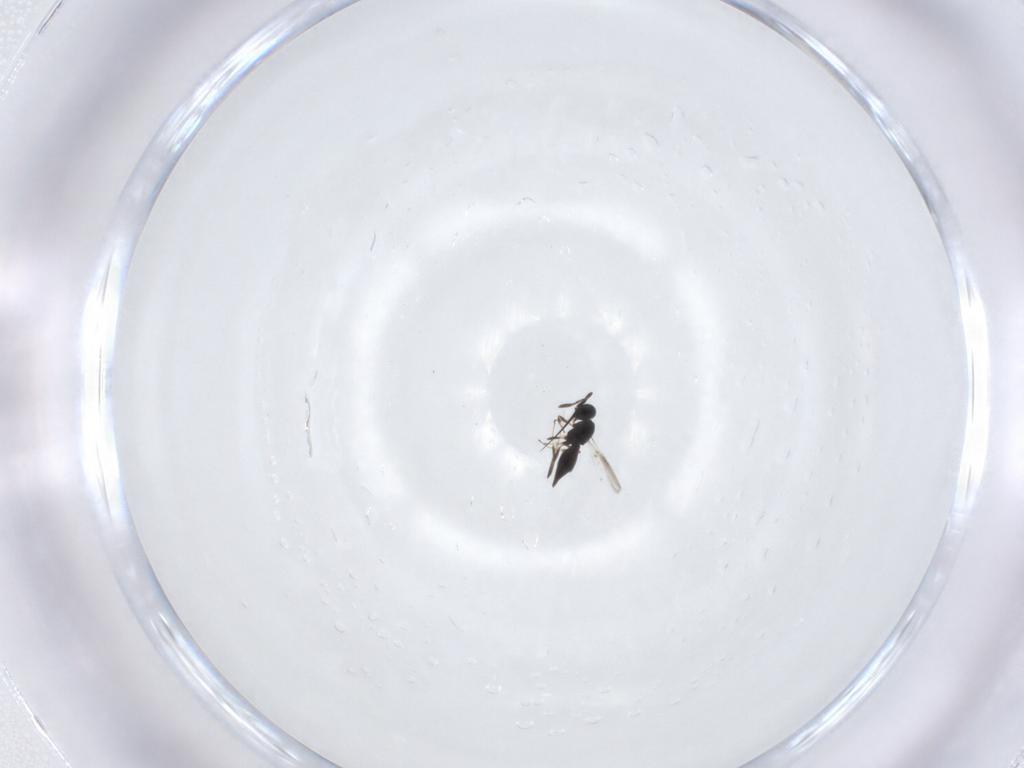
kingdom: Animalia
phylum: Arthropoda
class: Insecta
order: Hymenoptera
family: Scelionidae
